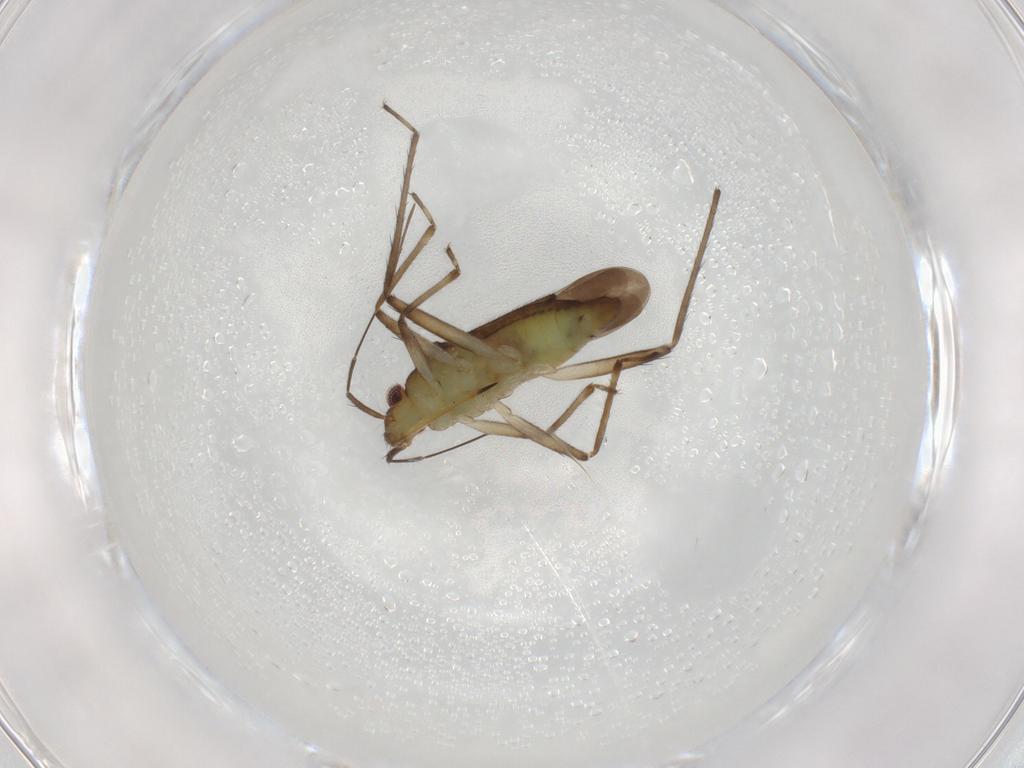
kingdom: Animalia
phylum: Arthropoda
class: Insecta
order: Hemiptera
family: Mesoveliidae
